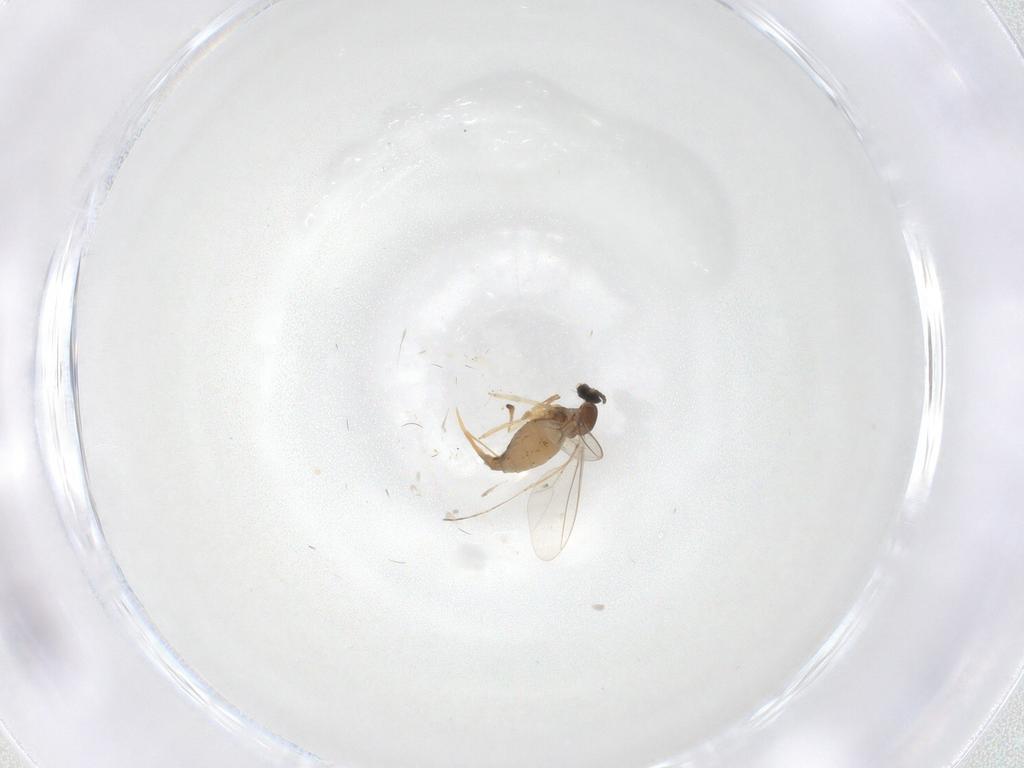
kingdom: Animalia
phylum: Arthropoda
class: Insecta
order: Diptera
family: Cecidomyiidae
